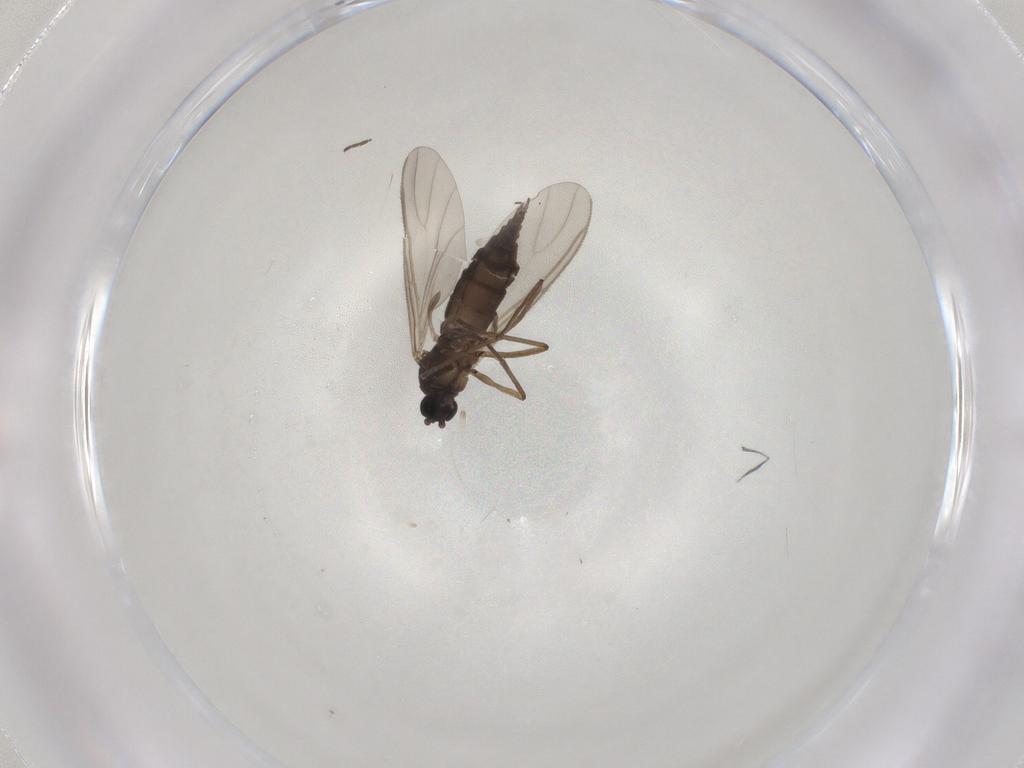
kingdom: Animalia
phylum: Arthropoda
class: Insecta
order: Diptera
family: Sciaridae
